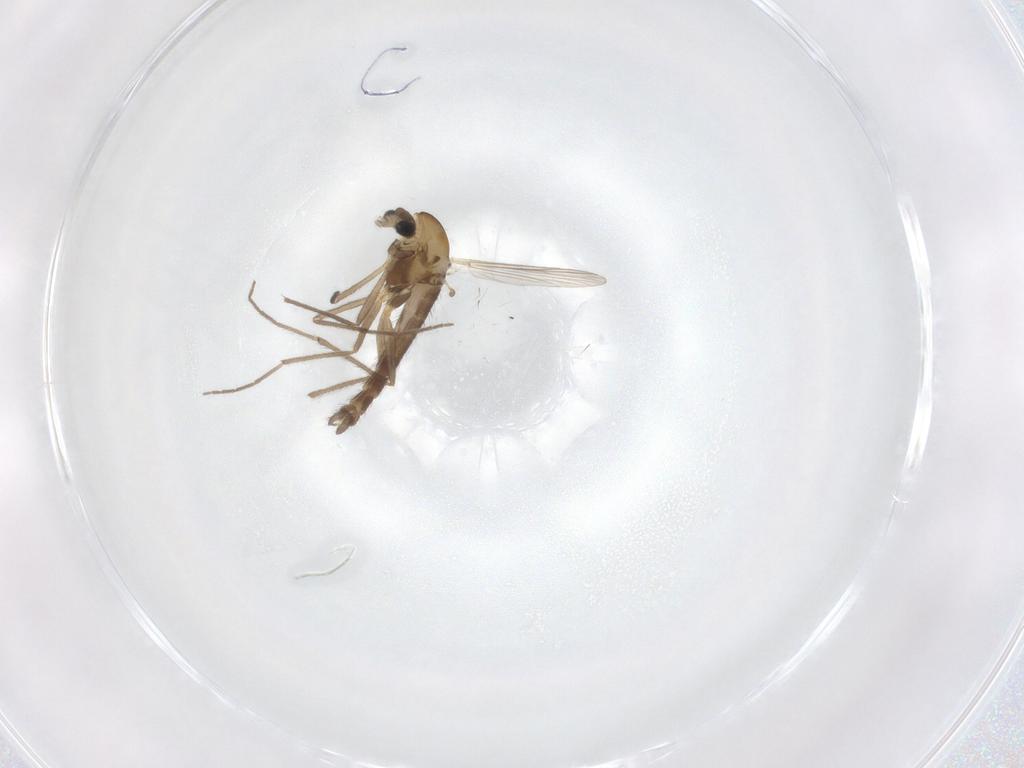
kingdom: Animalia
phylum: Arthropoda
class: Insecta
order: Diptera
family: Chironomidae
